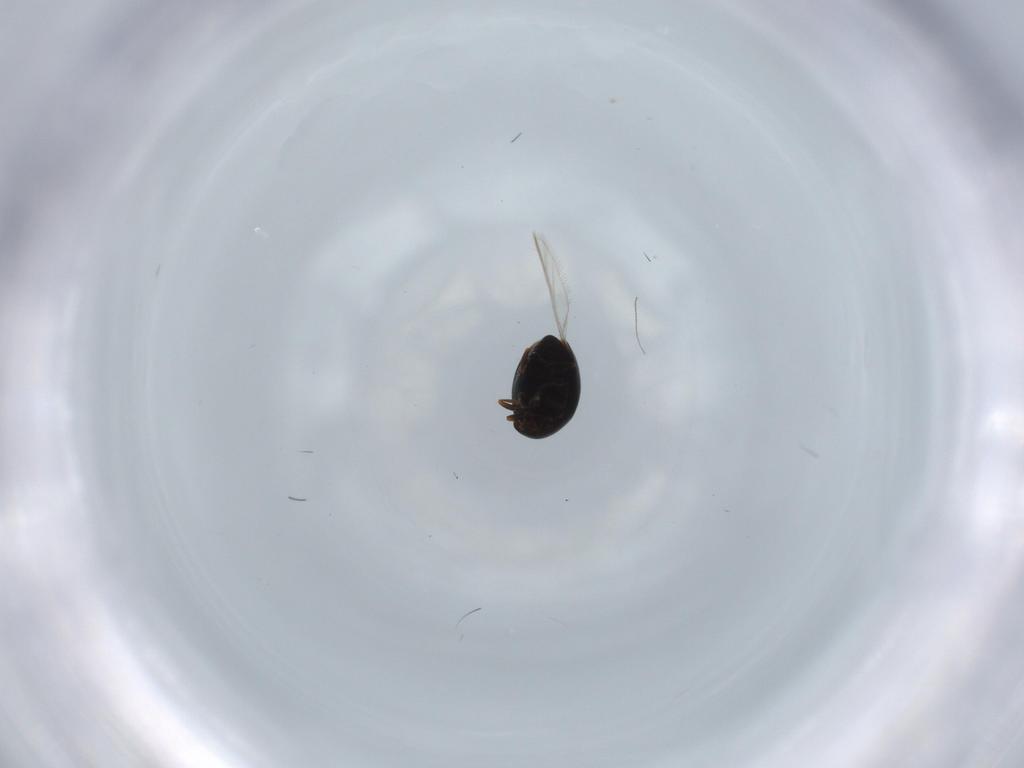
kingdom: Animalia
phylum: Arthropoda
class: Insecta
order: Coleoptera
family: Corylophidae
